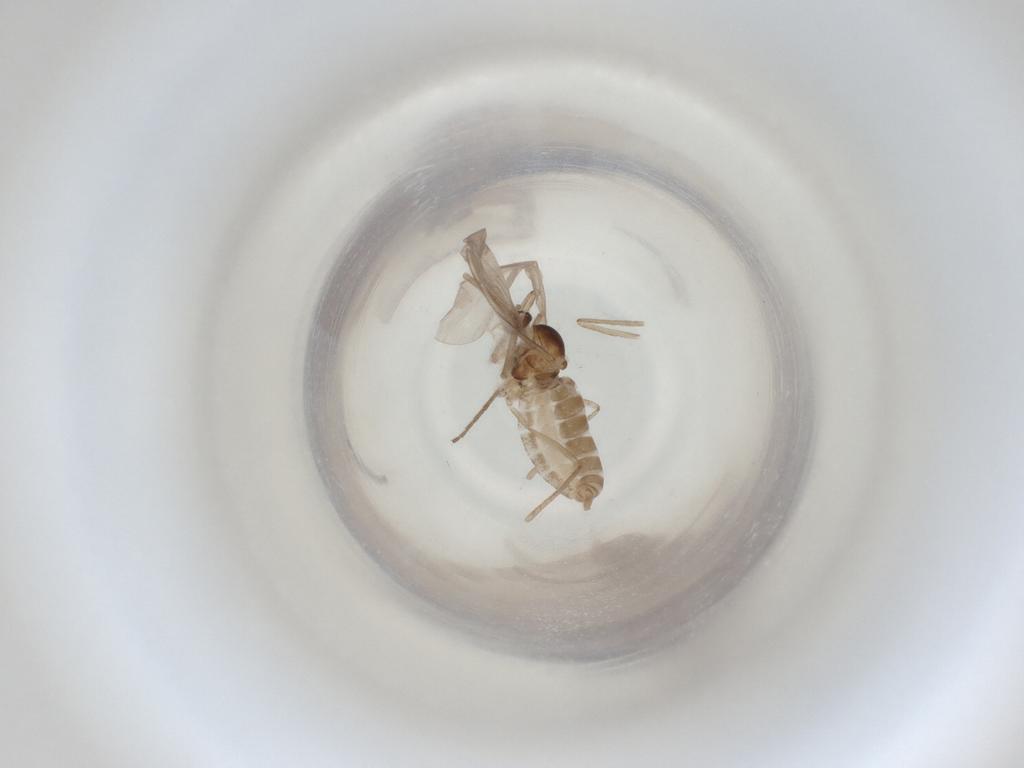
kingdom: Animalia
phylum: Arthropoda
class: Insecta
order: Diptera
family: Cecidomyiidae
